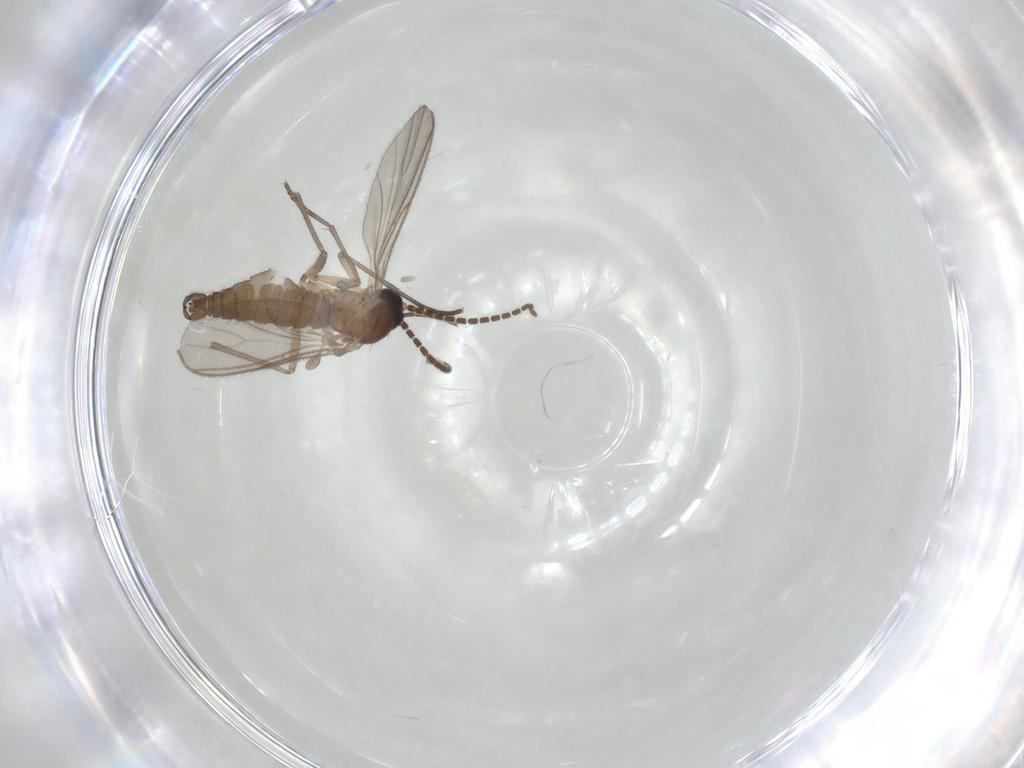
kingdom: Animalia
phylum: Arthropoda
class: Insecta
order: Diptera
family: Sciaridae
